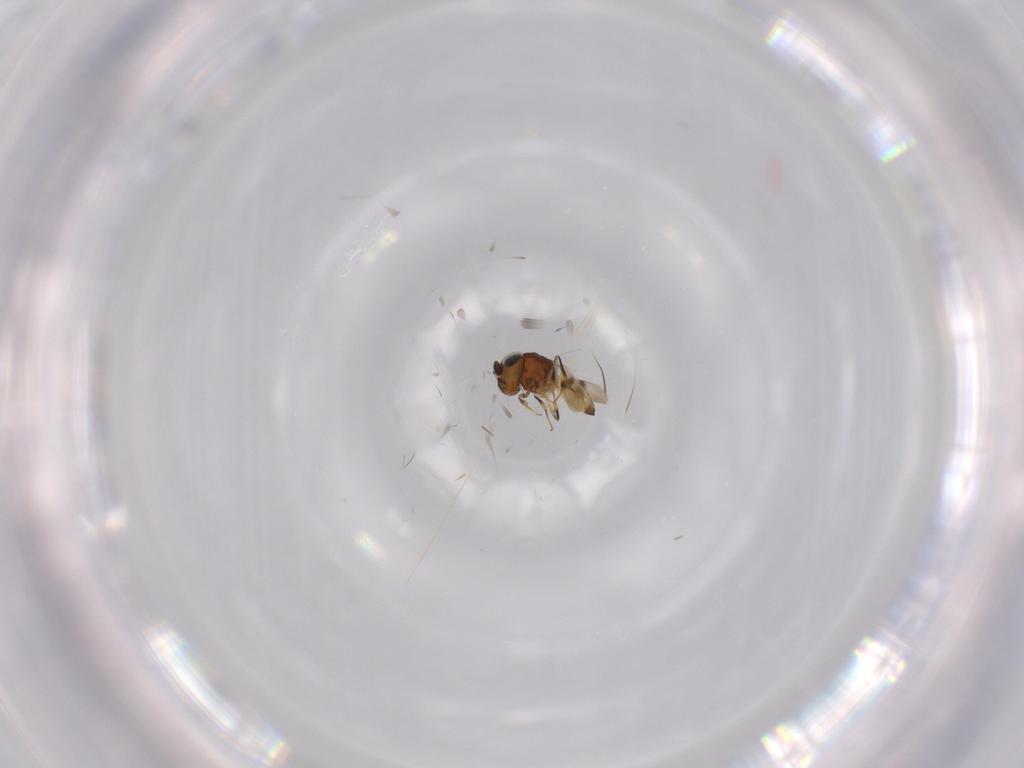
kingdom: Animalia
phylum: Arthropoda
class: Arachnida
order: Araneae
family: Pholcidae
